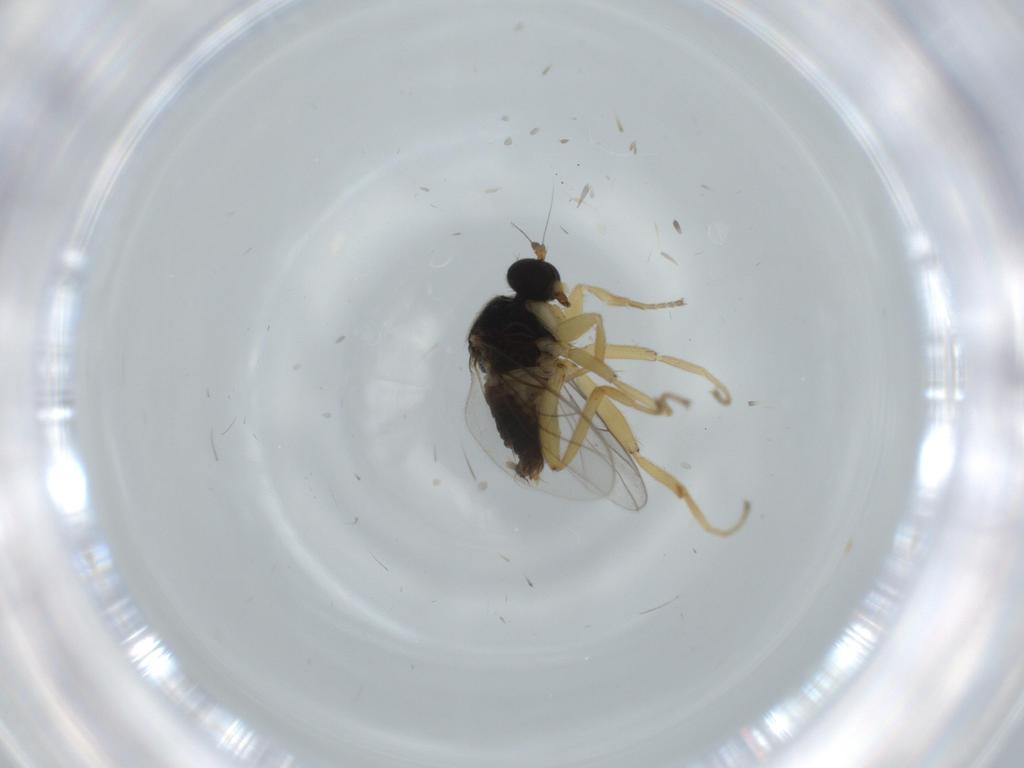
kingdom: Animalia
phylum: Arthropoda
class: Insecta
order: Diptera
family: Hybotidae
